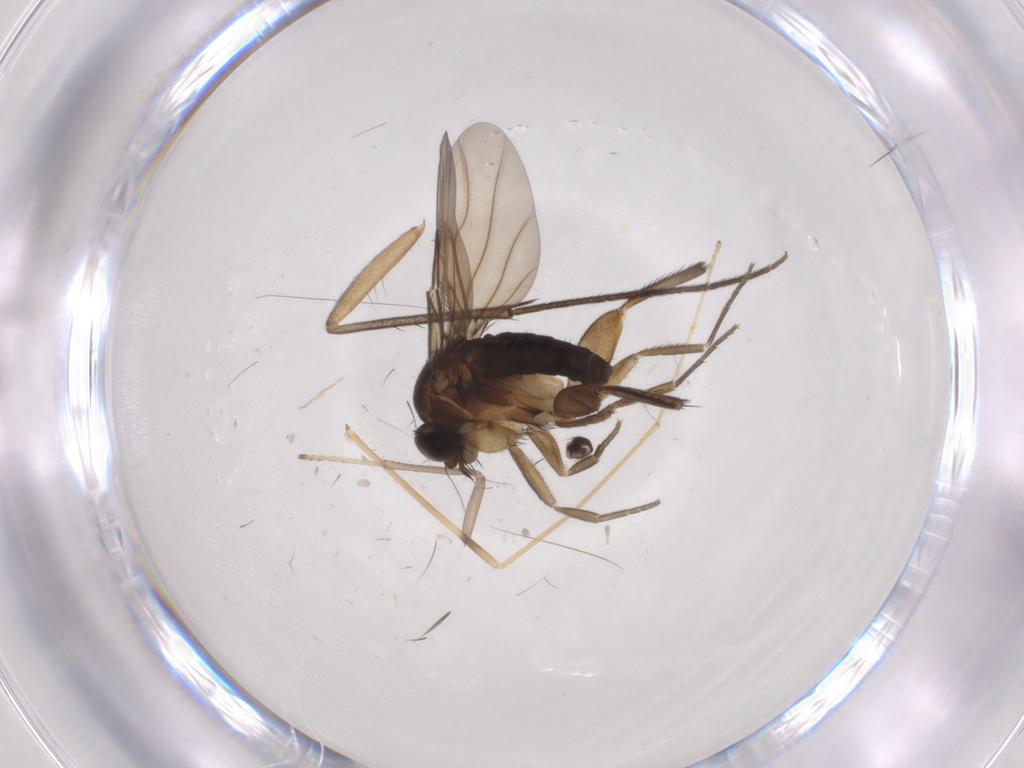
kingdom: Animalia
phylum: Arthropoda
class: Insecta
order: Diptera
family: Phoridae
